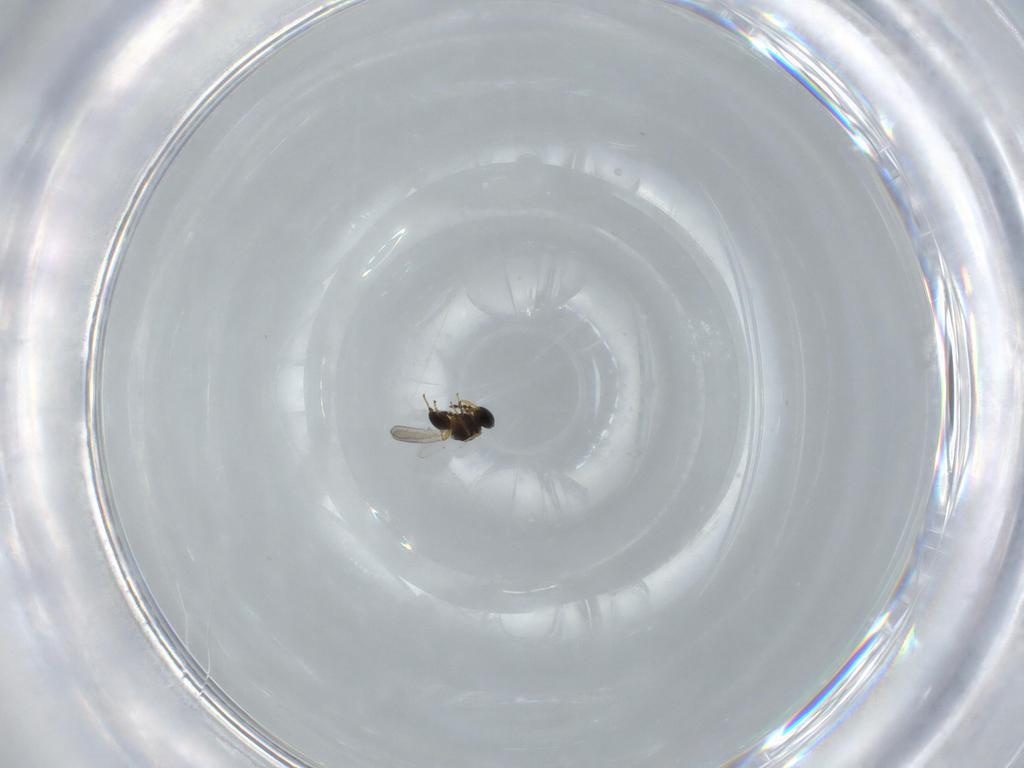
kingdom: Animalia
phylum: Arthropoda
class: Insecta
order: Hymenoptera
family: Platygastridae
